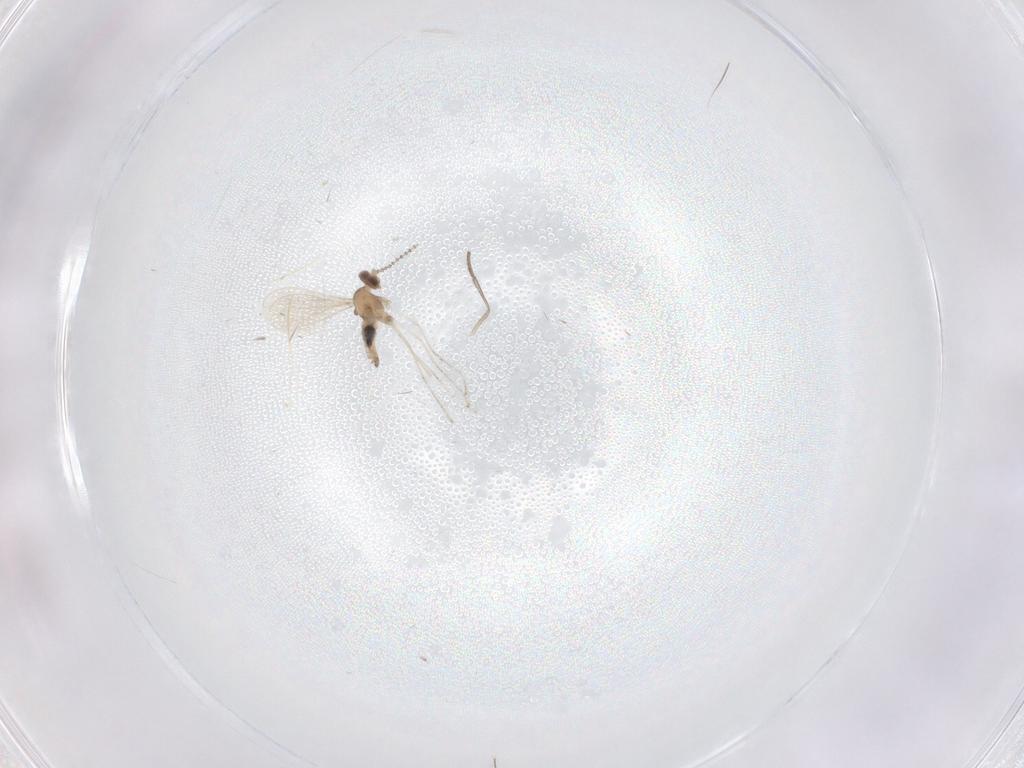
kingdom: Animalia
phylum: Arthropoda
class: Insecta
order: Diptera
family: Psychodidae
